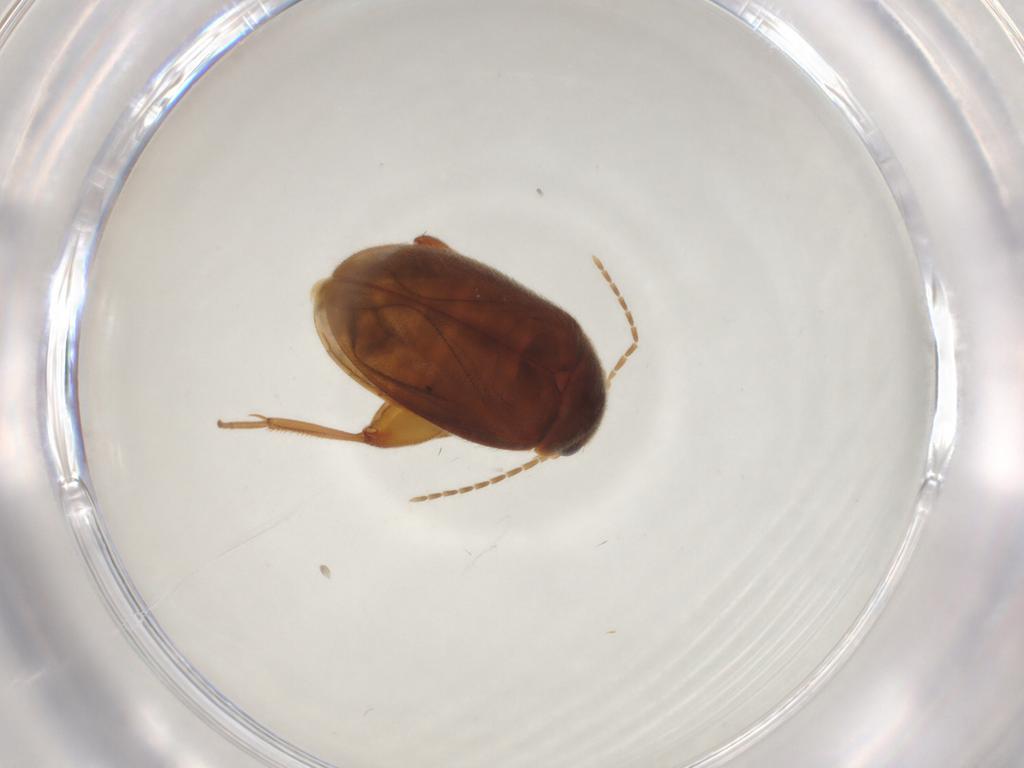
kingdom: Animalia
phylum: Arthropoda
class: Insecta
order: Coleoptera
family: Scirtidae
